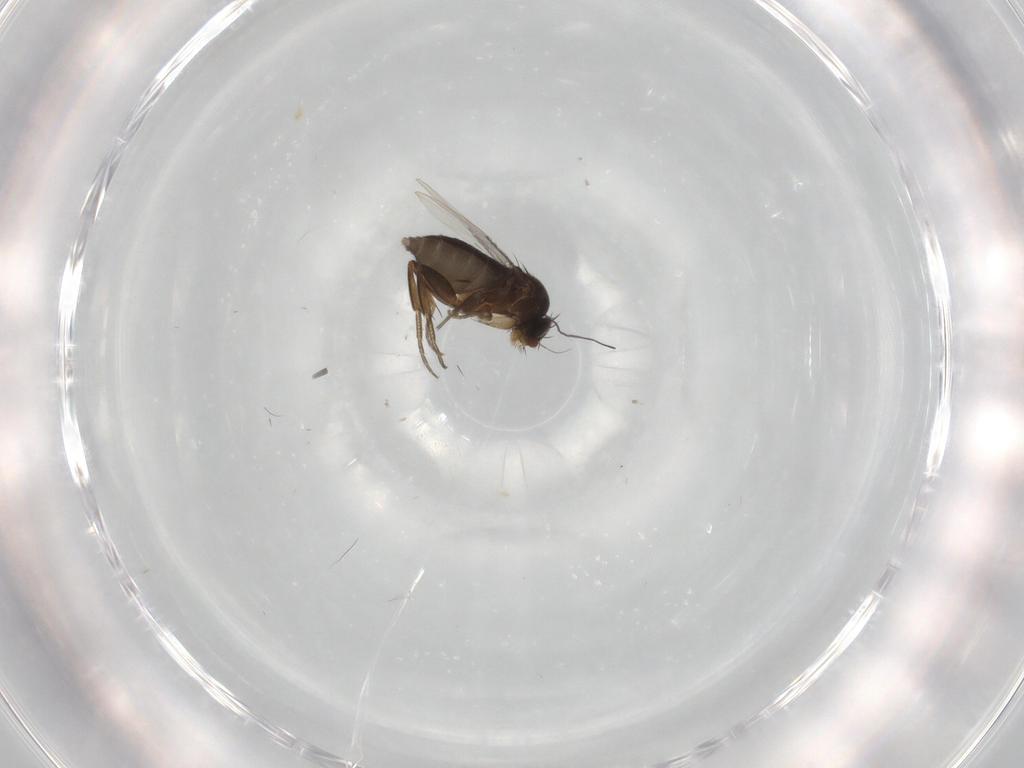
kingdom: Animalia
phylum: Arthropoda
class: Insecta
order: Diptera
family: Phoridae
